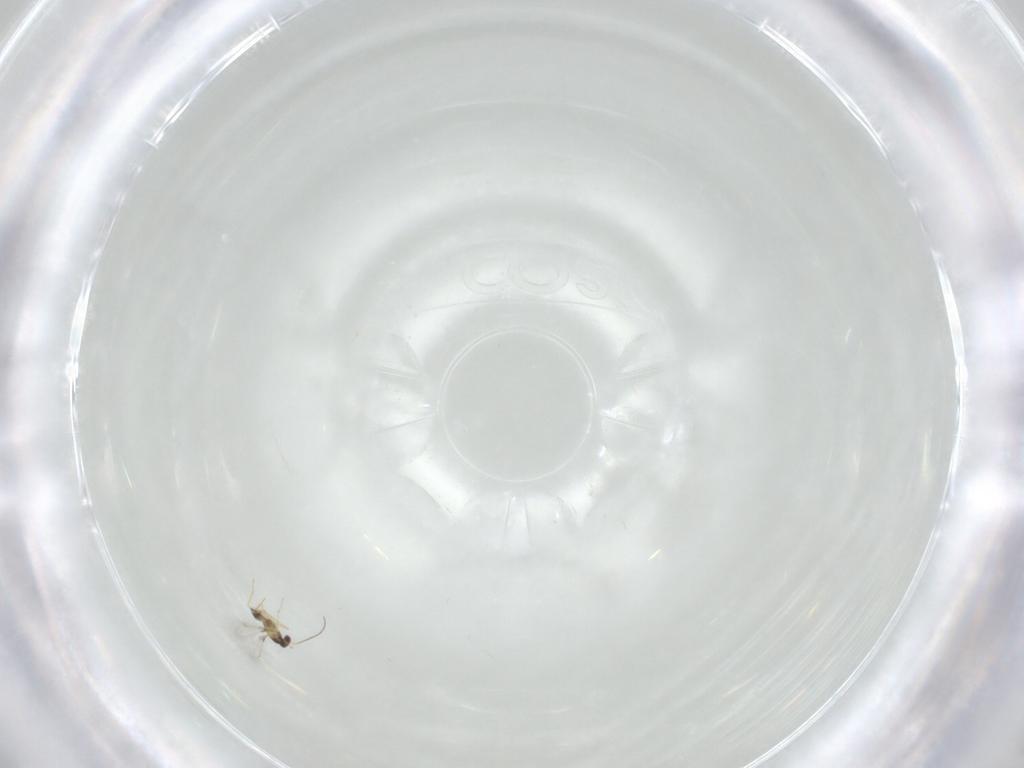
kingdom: Animalia
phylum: Arthropoda
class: Insecta
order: Hymenoptera
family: Mymaridae
